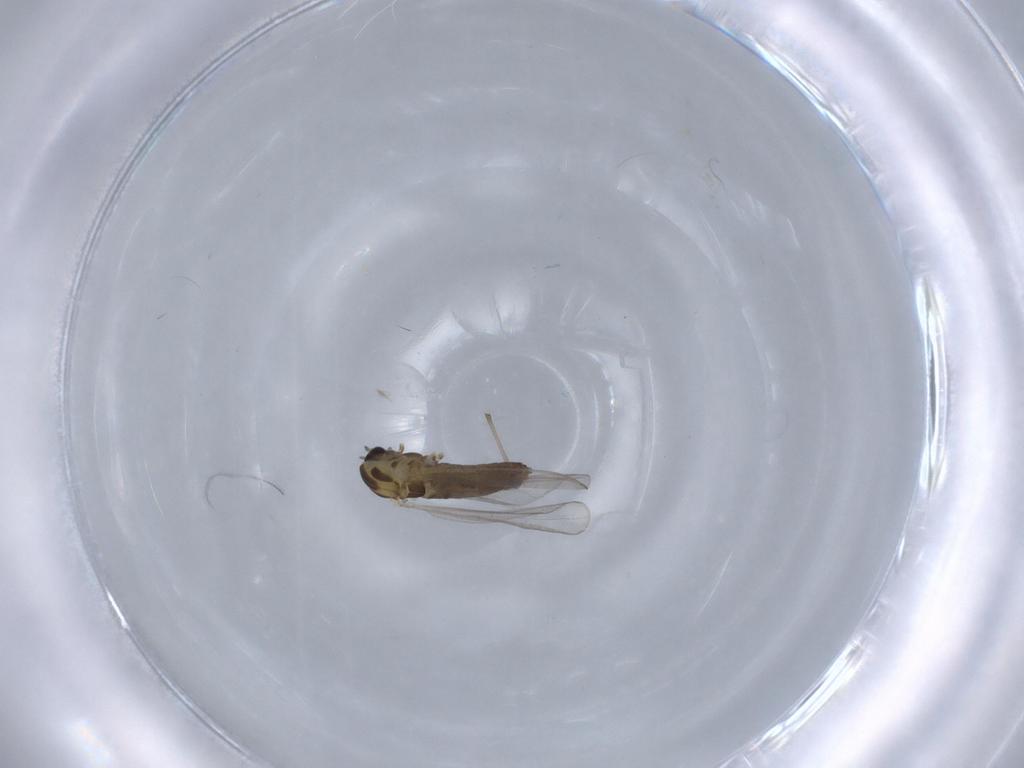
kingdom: Animalia
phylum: Arthropoda
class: Insecta
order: Diptera
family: Chironomidae
